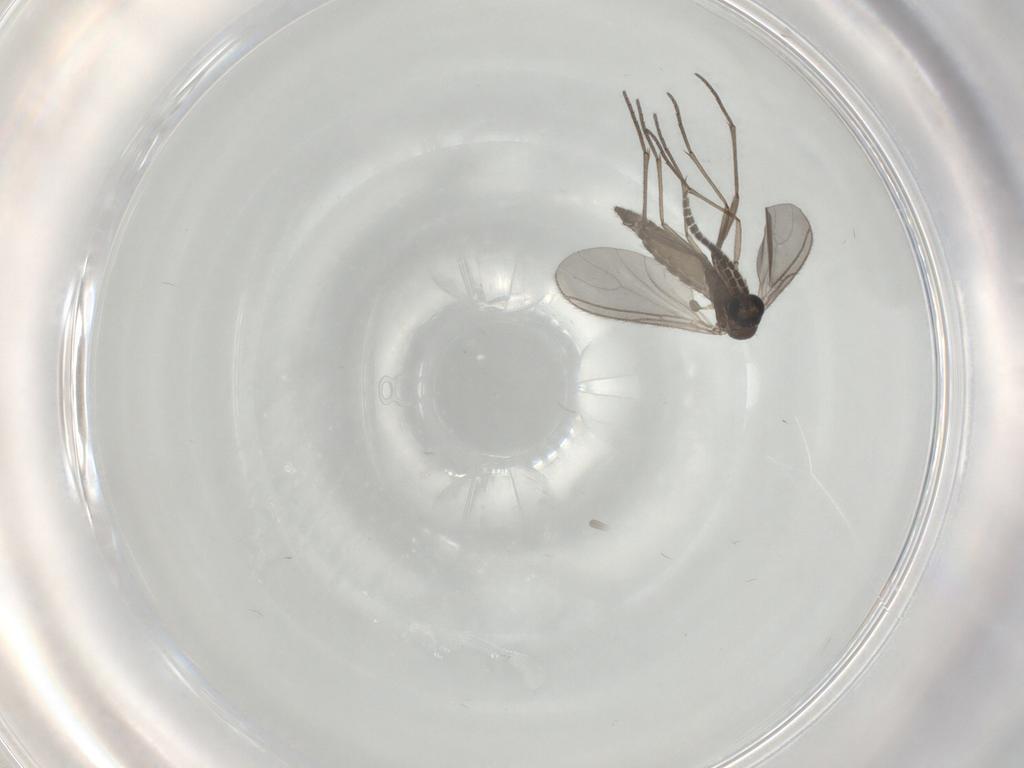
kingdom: Animalia
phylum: Arthropoda
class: Insecta
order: Diptera
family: Sciaridae
